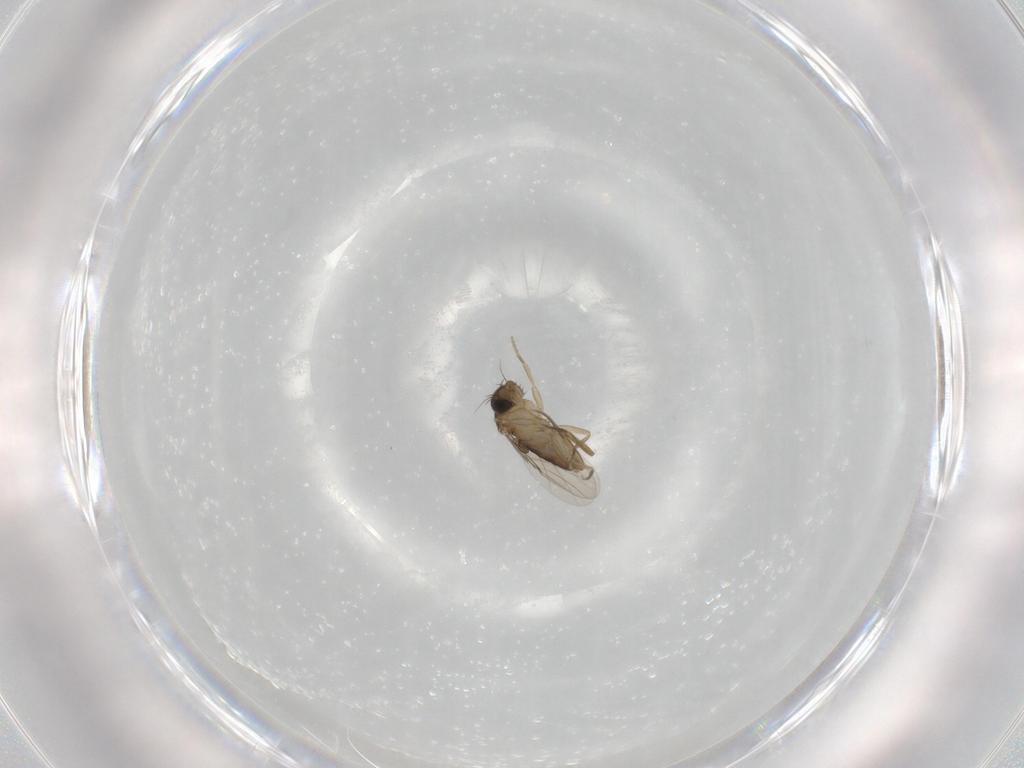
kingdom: Animalia
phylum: Arthropoda
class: Insecta
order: Diptera
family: Phoridae
